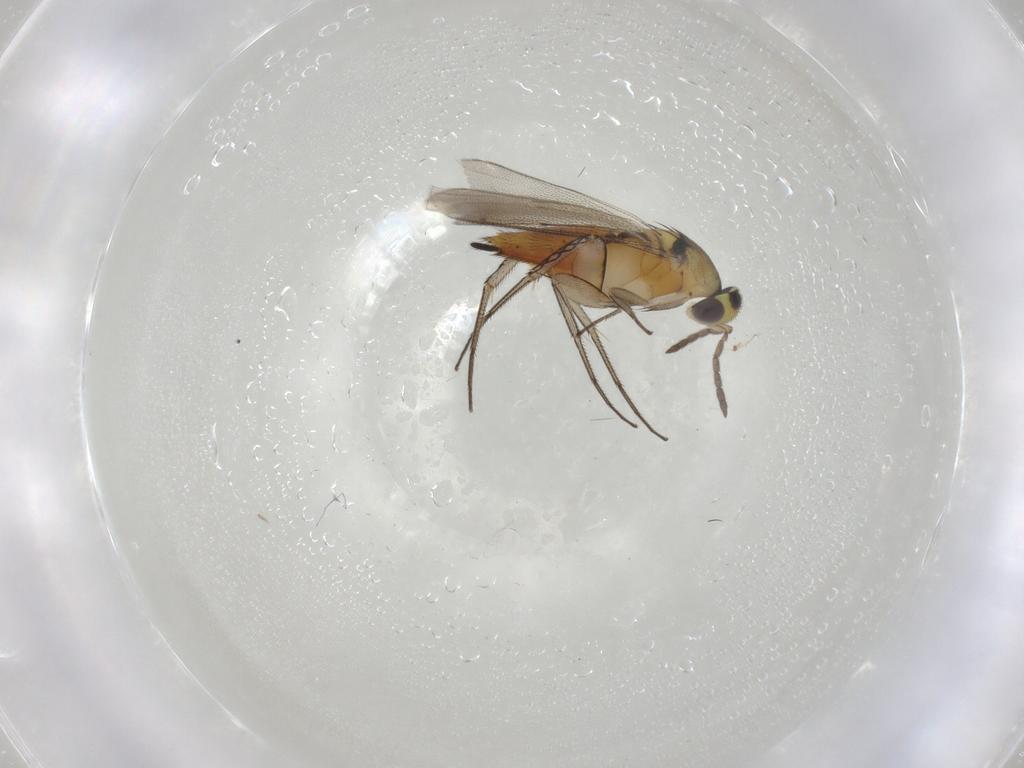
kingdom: Animalia
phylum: Arthropoda
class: Insecta
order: Hymenoptera
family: Eulophidae
